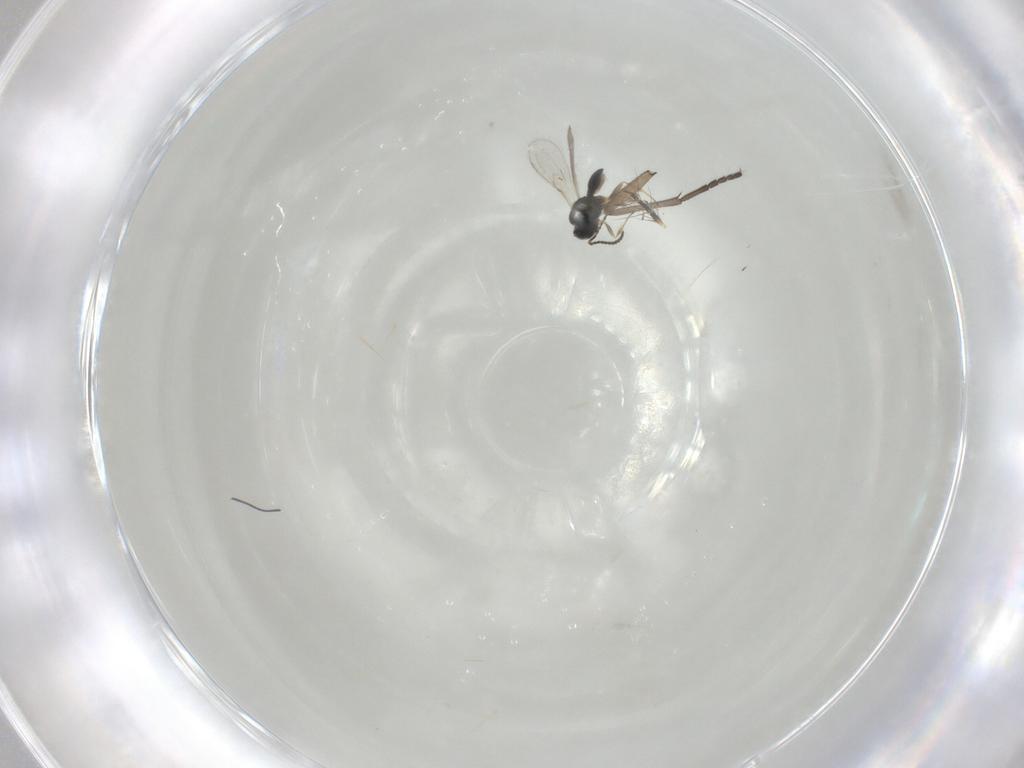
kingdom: Animalia
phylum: Arthropoda
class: Insecta
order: Hymenoptera
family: Scelionidae
